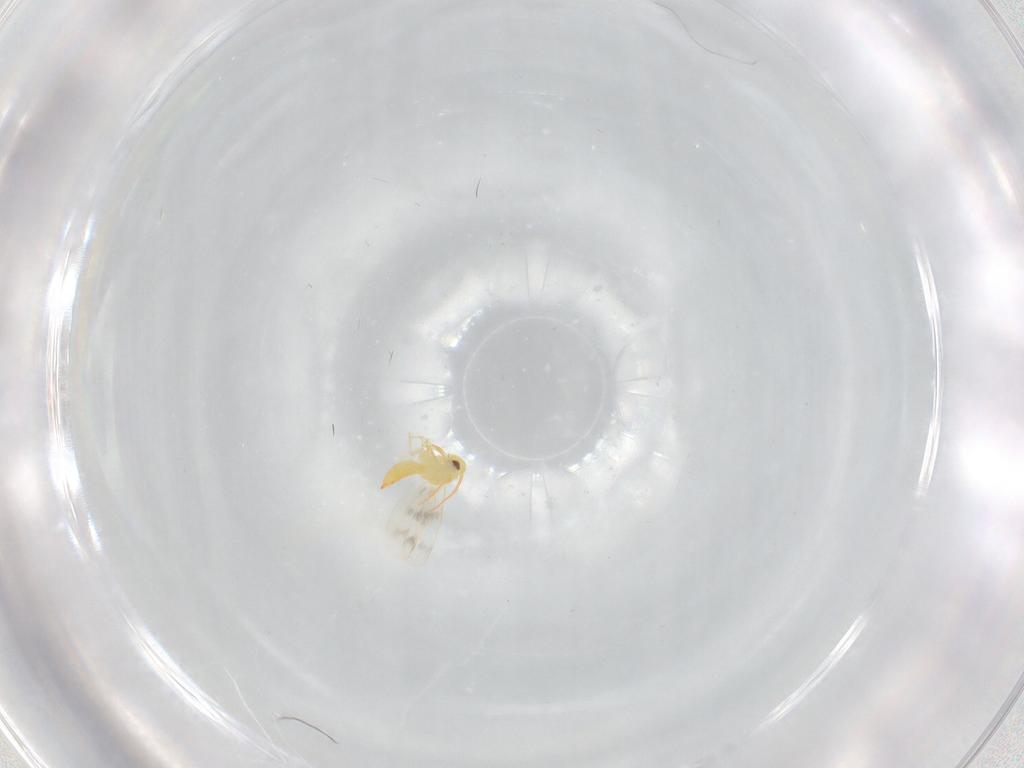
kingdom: Animalia
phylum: Arthropoda
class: Insecta
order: Hemiptera
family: Aleyrodidae
